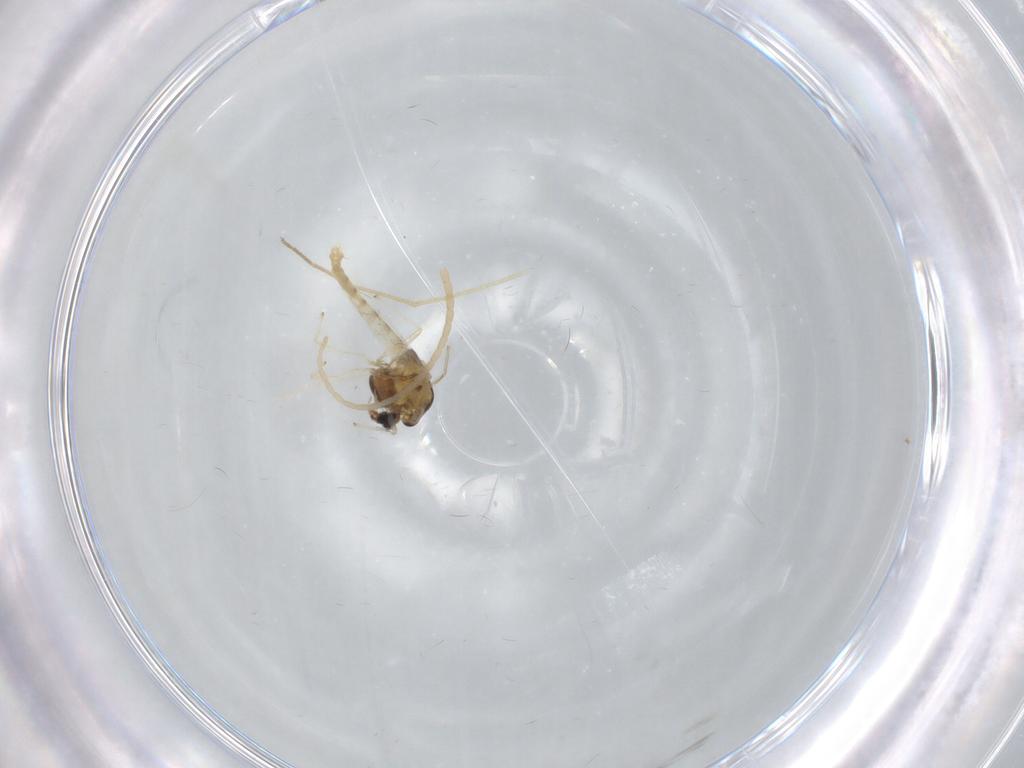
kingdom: Animalia
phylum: Arthropoda
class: Insecta
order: Diptera
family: Chironomidae
